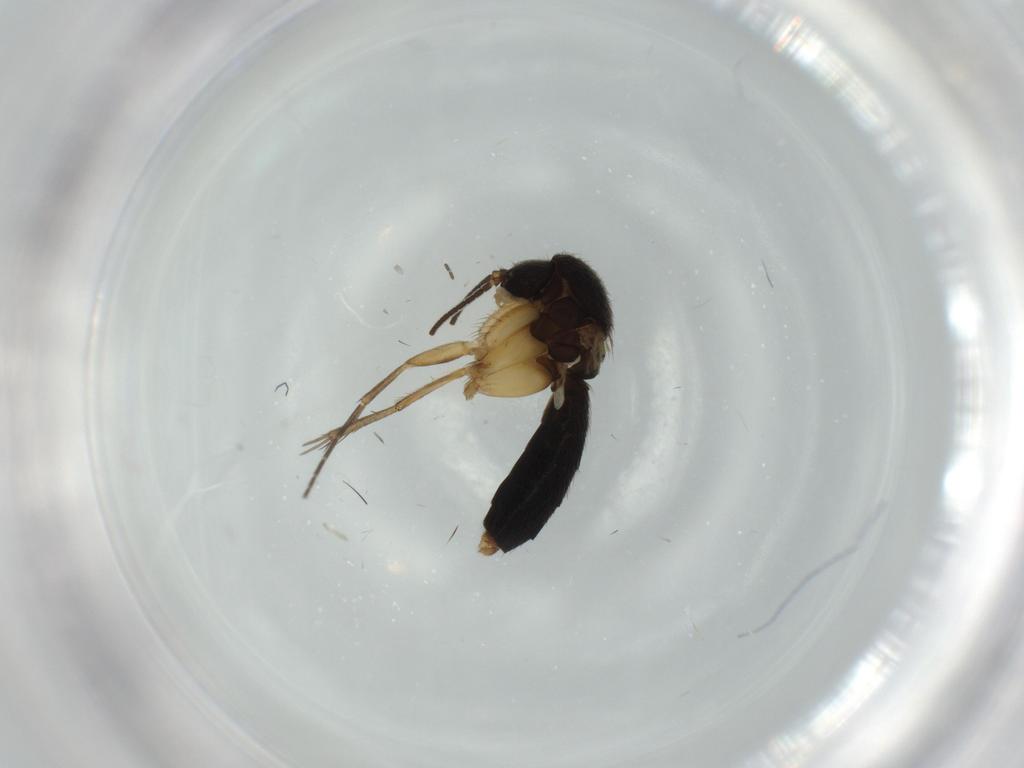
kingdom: Animalia
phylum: Arthropoda
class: Insecta
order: Diptera
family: Mycetophilidae
